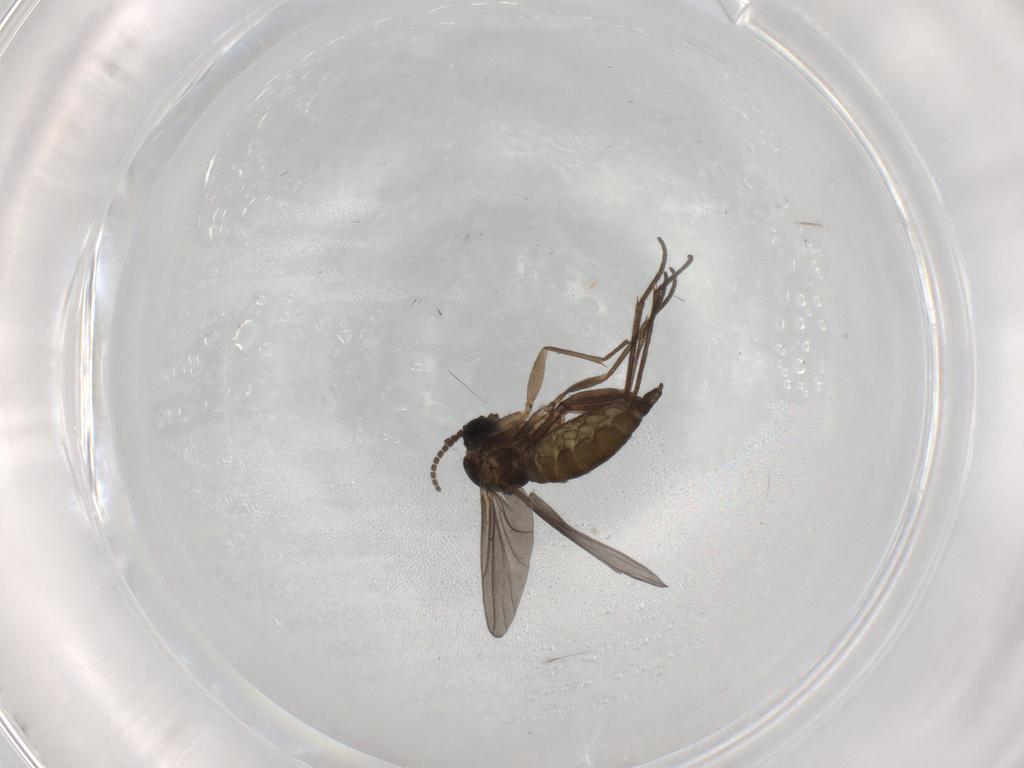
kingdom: Animalia
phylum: Arthropoda
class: Insecta
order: Diptera
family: Sciaridae
